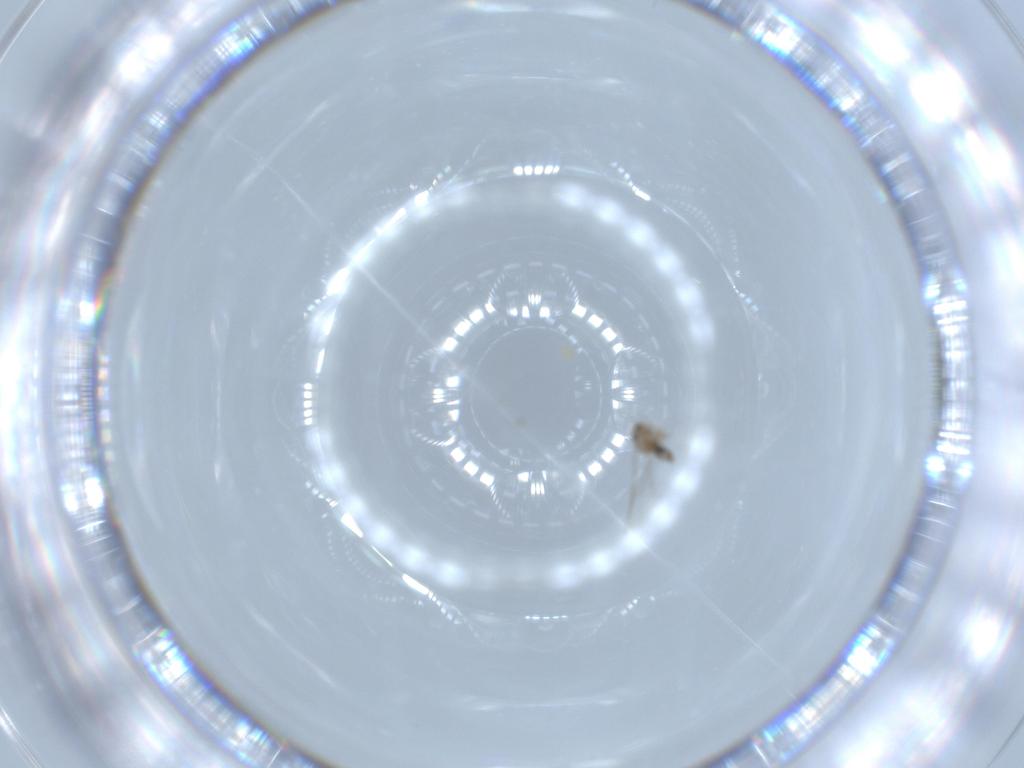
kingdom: Animalia
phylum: Arthropoda
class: Insecta
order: Diptera
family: Cecidomyiidae
